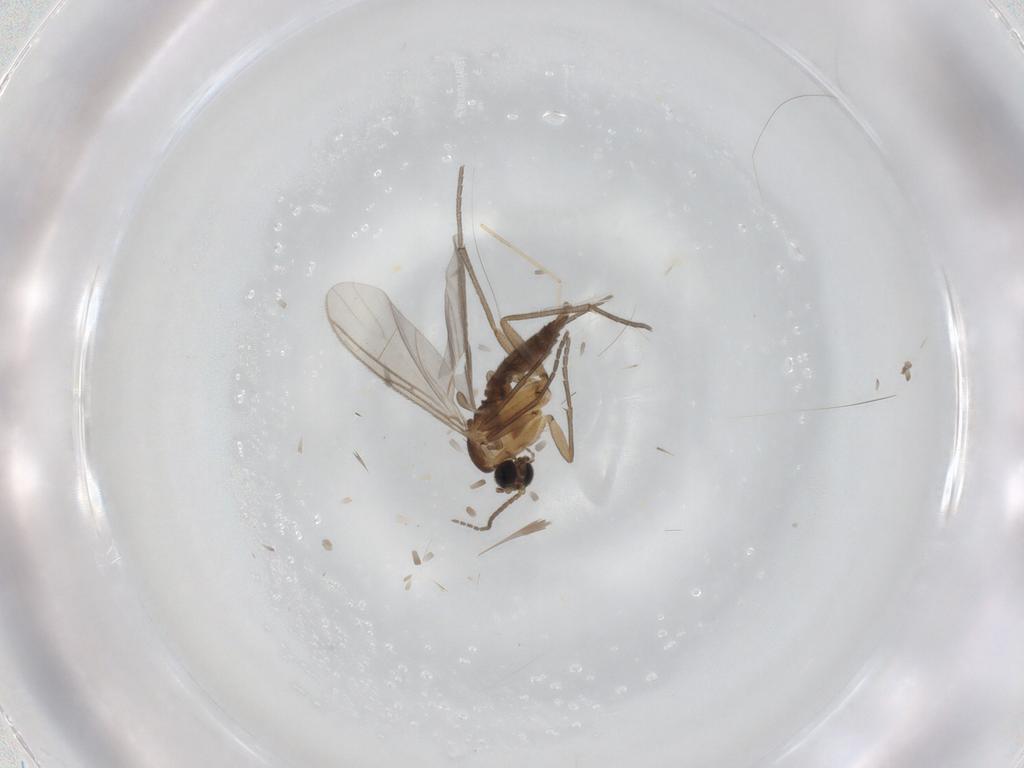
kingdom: Animalia
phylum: Arthropoda
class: Insecta
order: Diptera
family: Sciaridae
